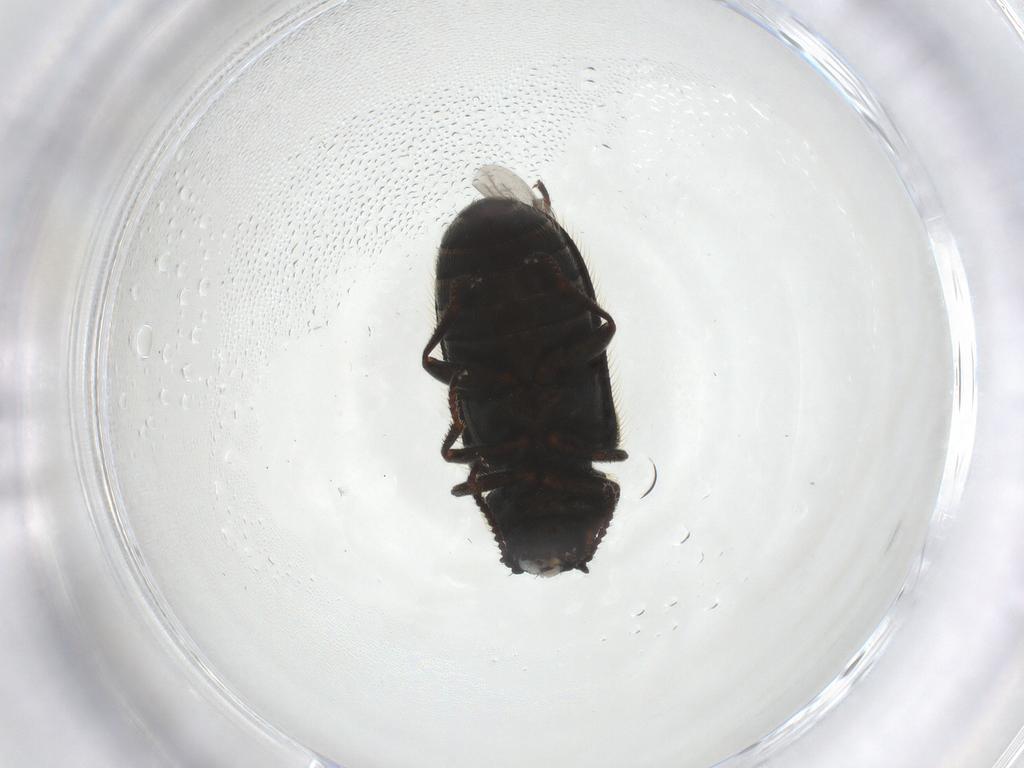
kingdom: Animalia
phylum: Arthropoda
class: Insecta
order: Coleoptera
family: Melyridae
